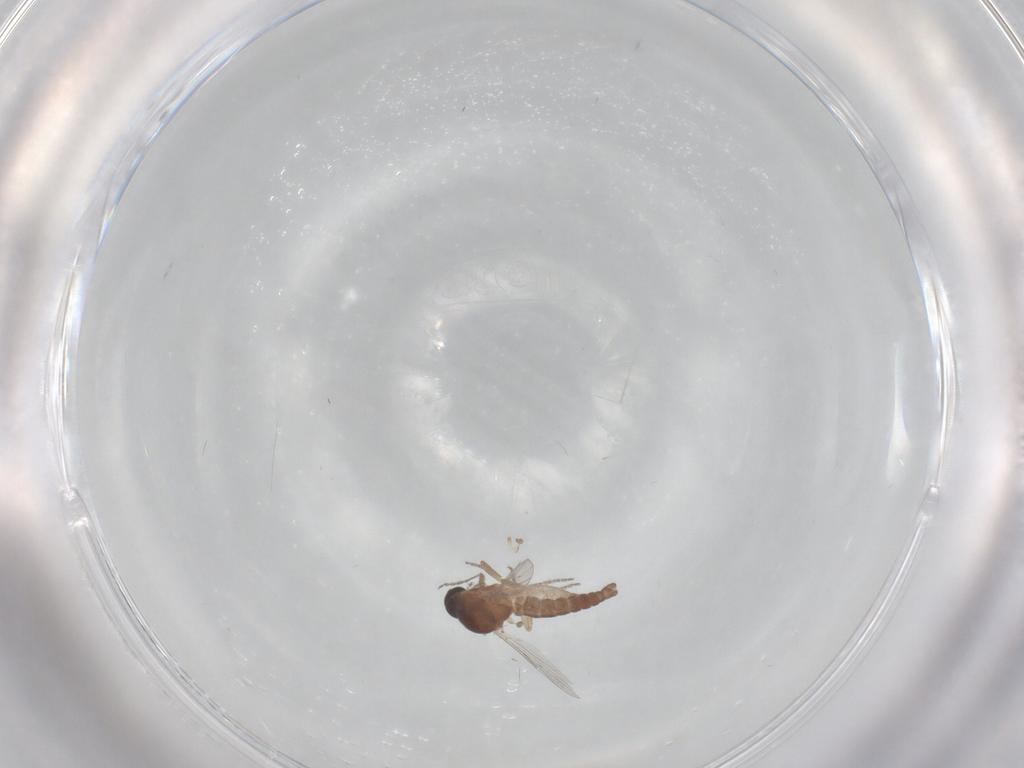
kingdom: Animalia
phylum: Arthropoda
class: Insecta
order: Diptera
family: Ceratopogonidae
